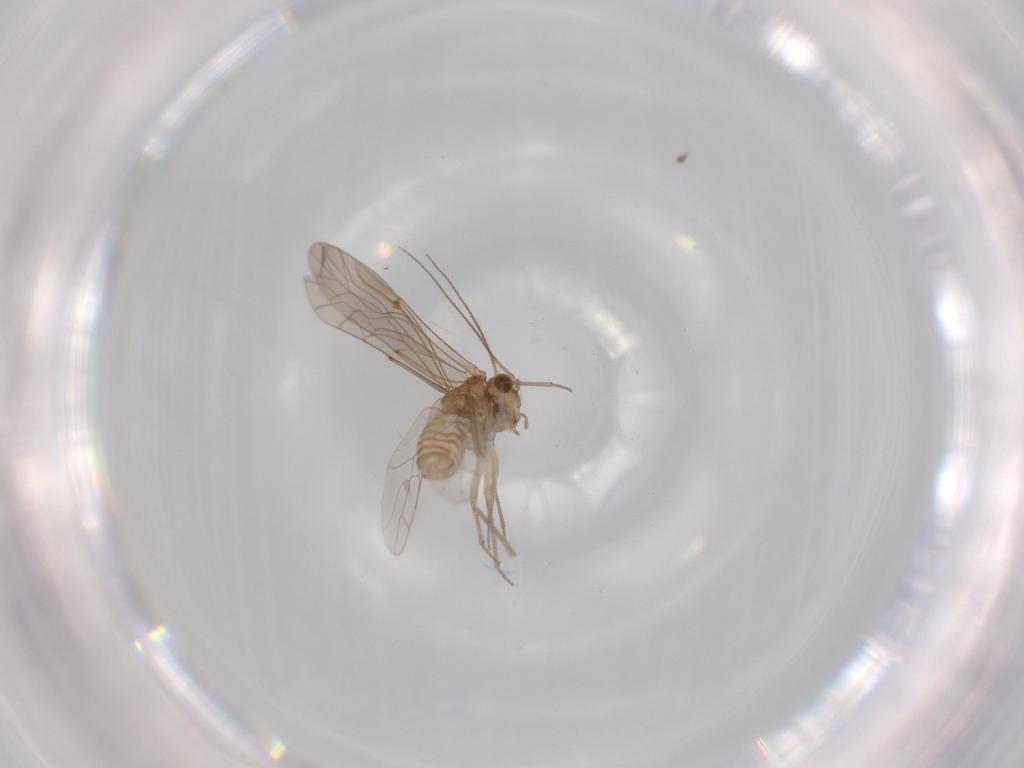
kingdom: Animalia
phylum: Arthropoda
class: Insecta
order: Psocodea
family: Lachesillidae
